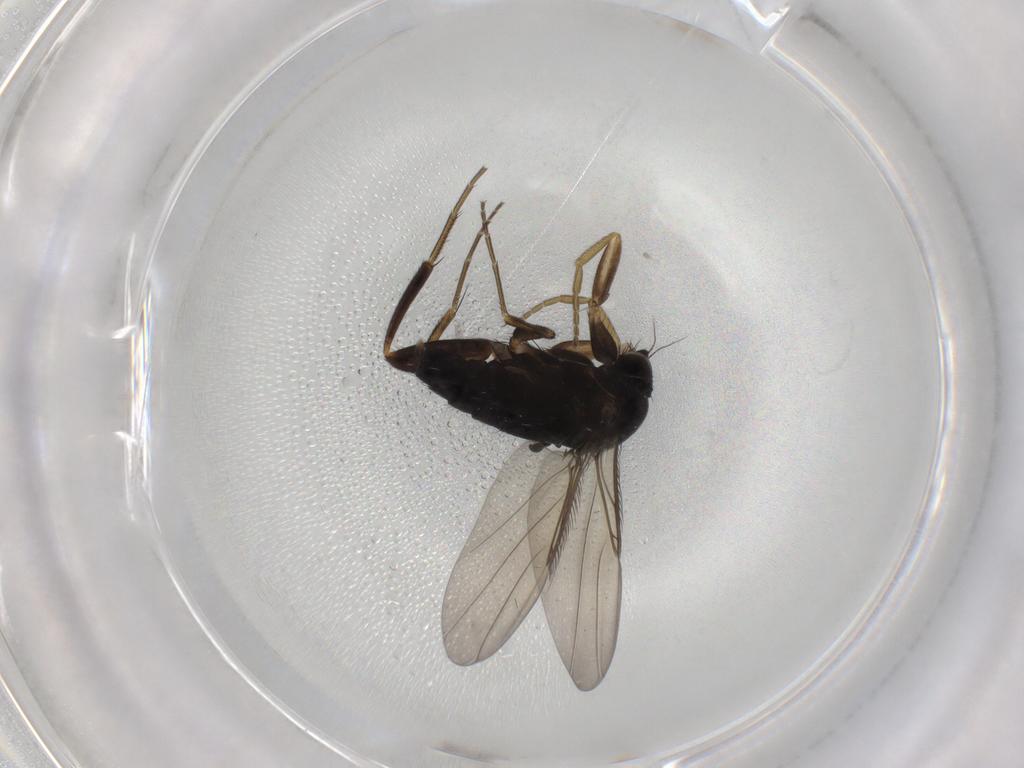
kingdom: Animalia
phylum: Arthropoda
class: Insecta
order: Diptera
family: Phoridae
